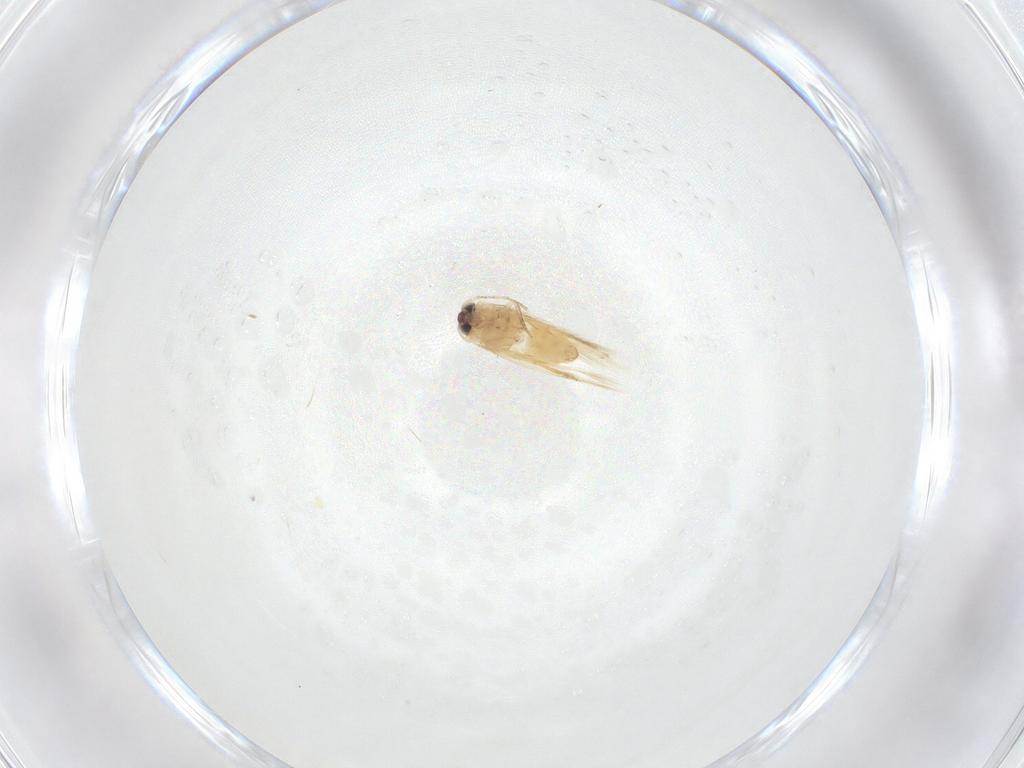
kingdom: Animalia
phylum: Arthropoda
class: Insecta
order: Lepidoptera
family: Crambidae
